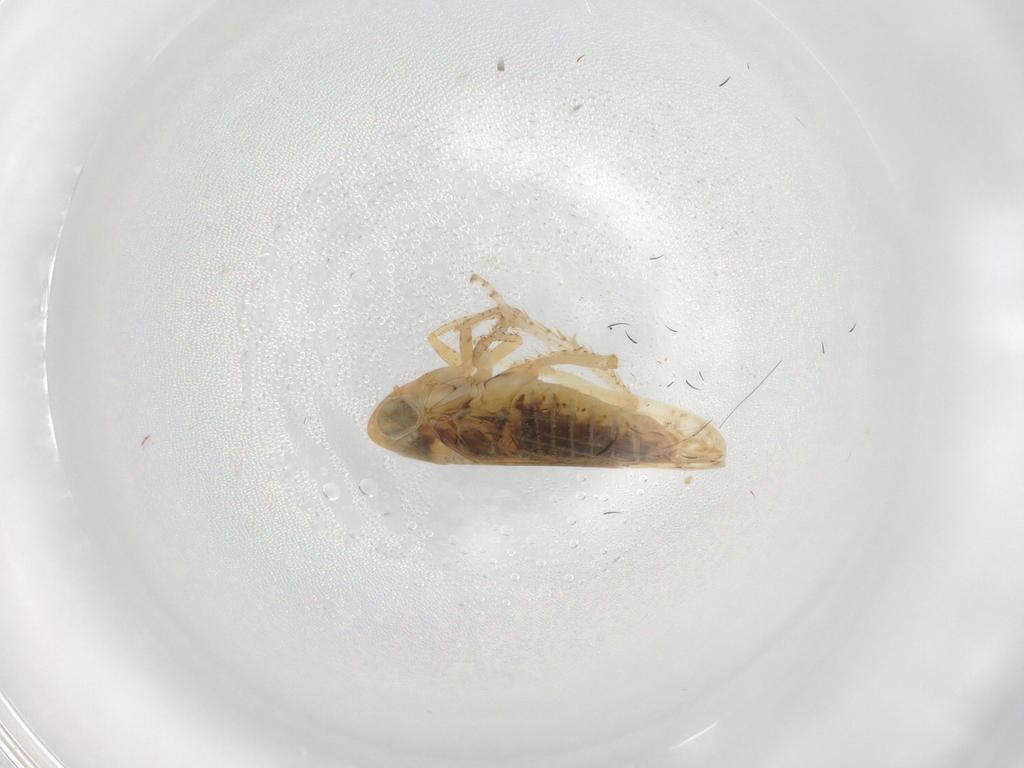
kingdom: Animalia
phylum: Arthropoda
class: Insecta
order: Hemiptera
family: Cicadellidae
